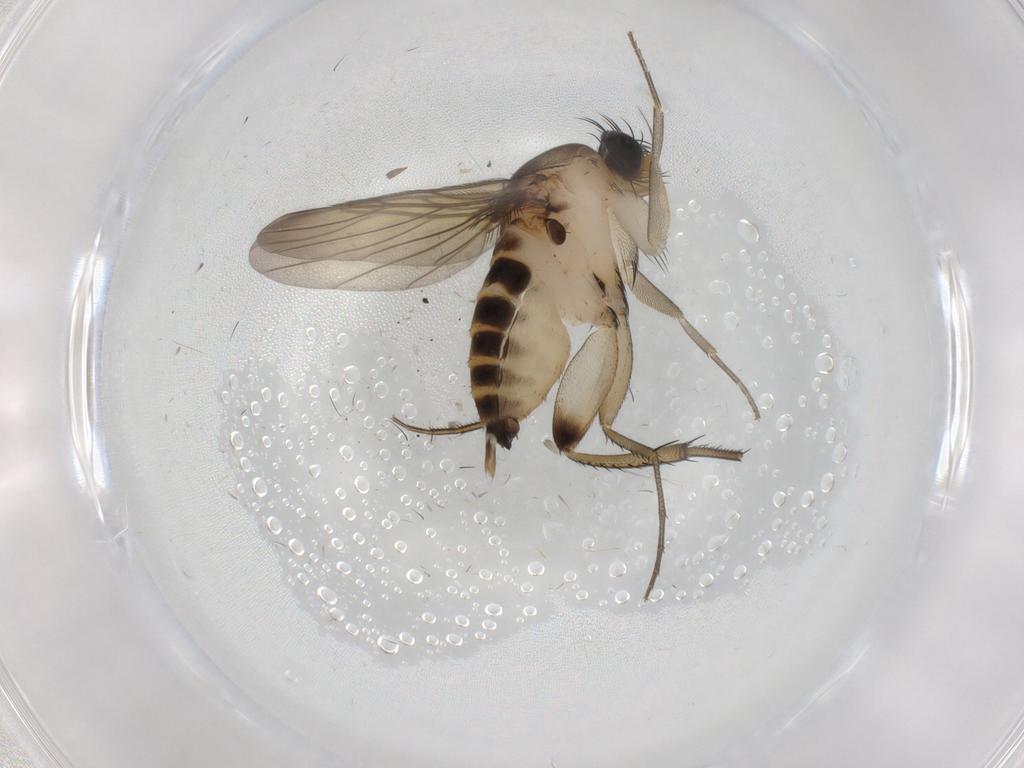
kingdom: Animalia
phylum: Arthropoda
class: Insecta
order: Diptera
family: Phoridae
